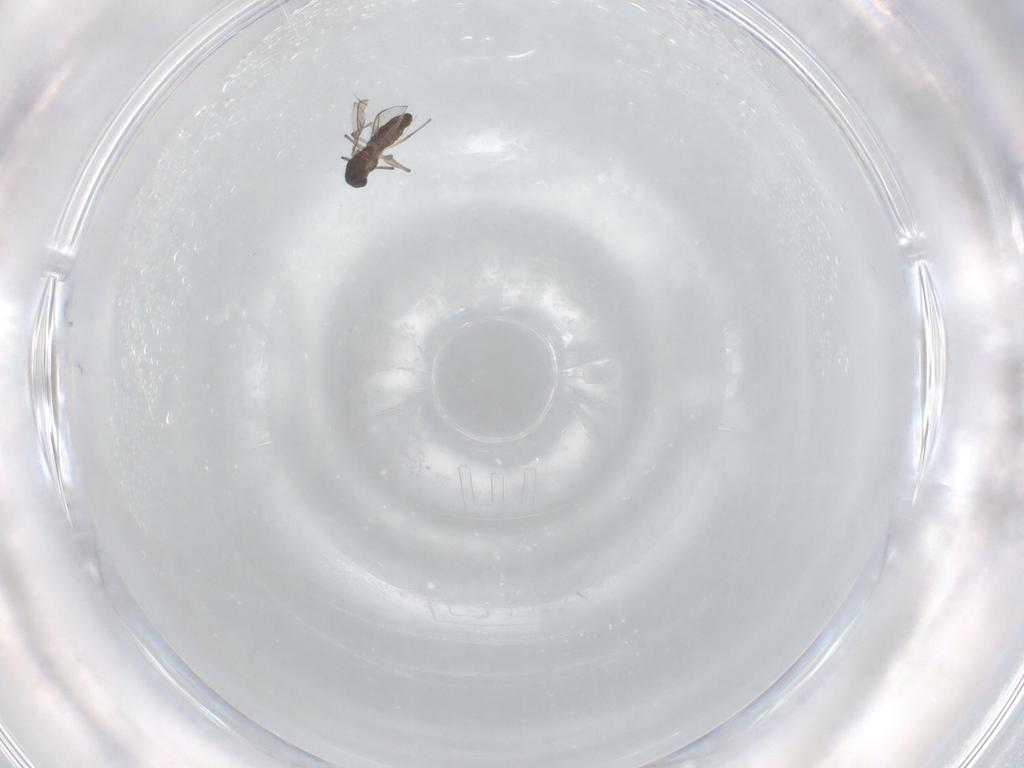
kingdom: Animalia
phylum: Arthropoda
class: Insecta
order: Diptera
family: Chironomidae
